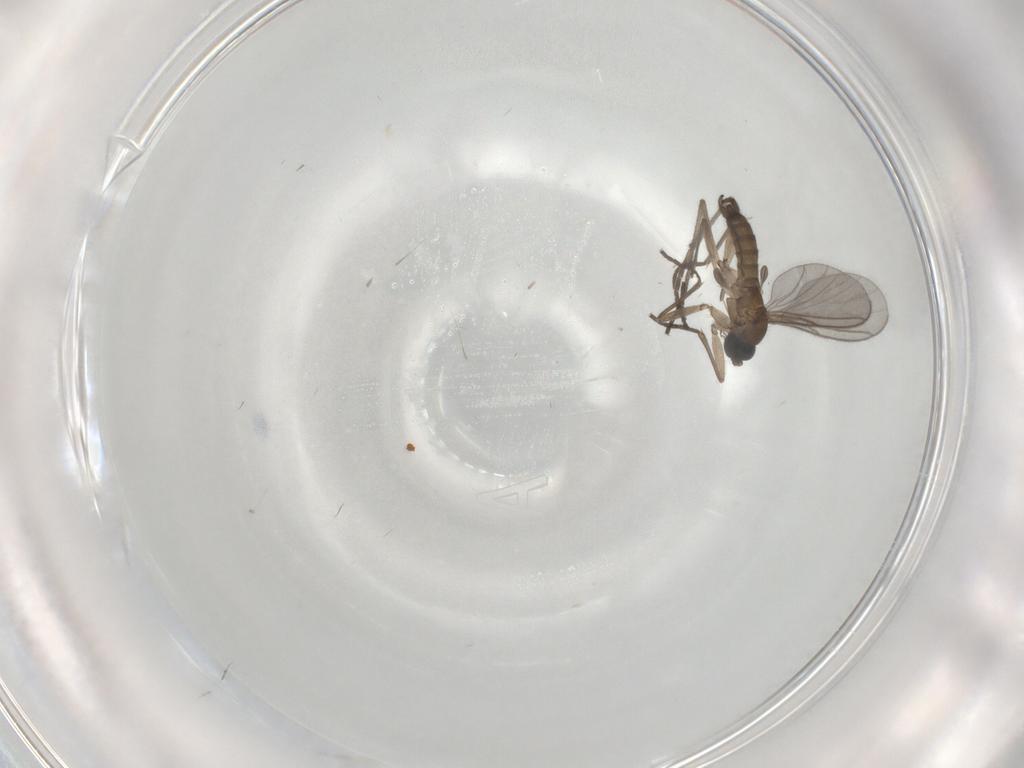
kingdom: Animalia
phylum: Arthropoda
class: Insecta
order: Diptera
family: Sciaridae
